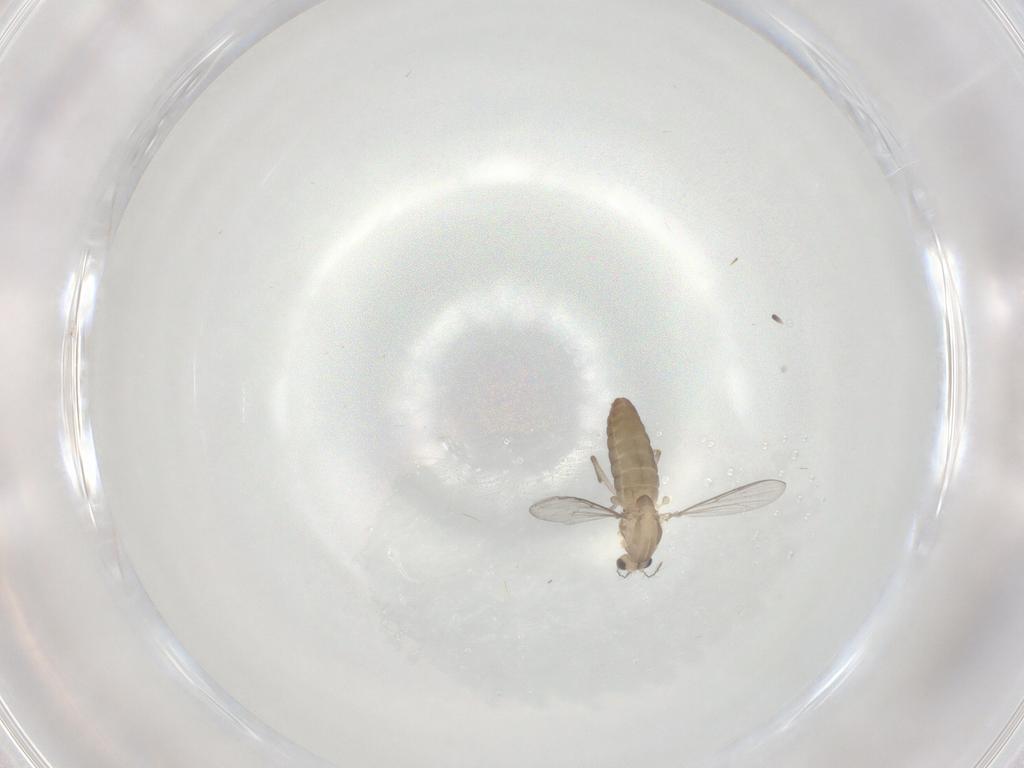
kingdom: Animalia
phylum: Arthropoda
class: Insecta
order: Diptera
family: Chironomidae
